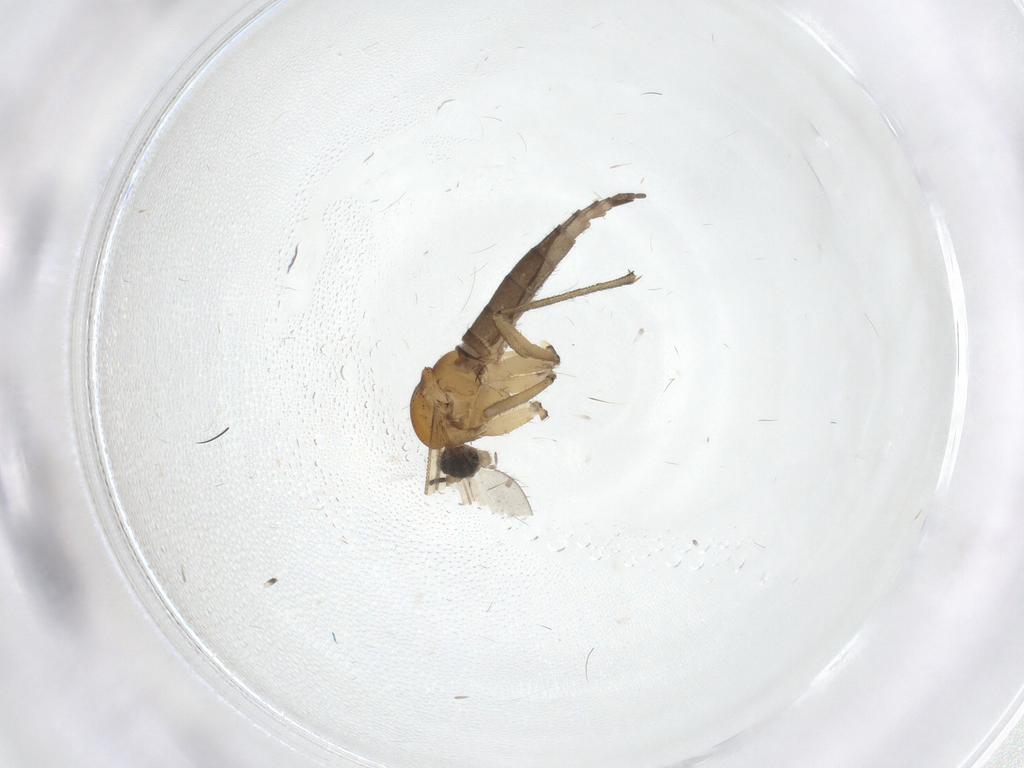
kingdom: Animalia
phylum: Arthropoda
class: Insecta
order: Diptera
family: Sciaridae
